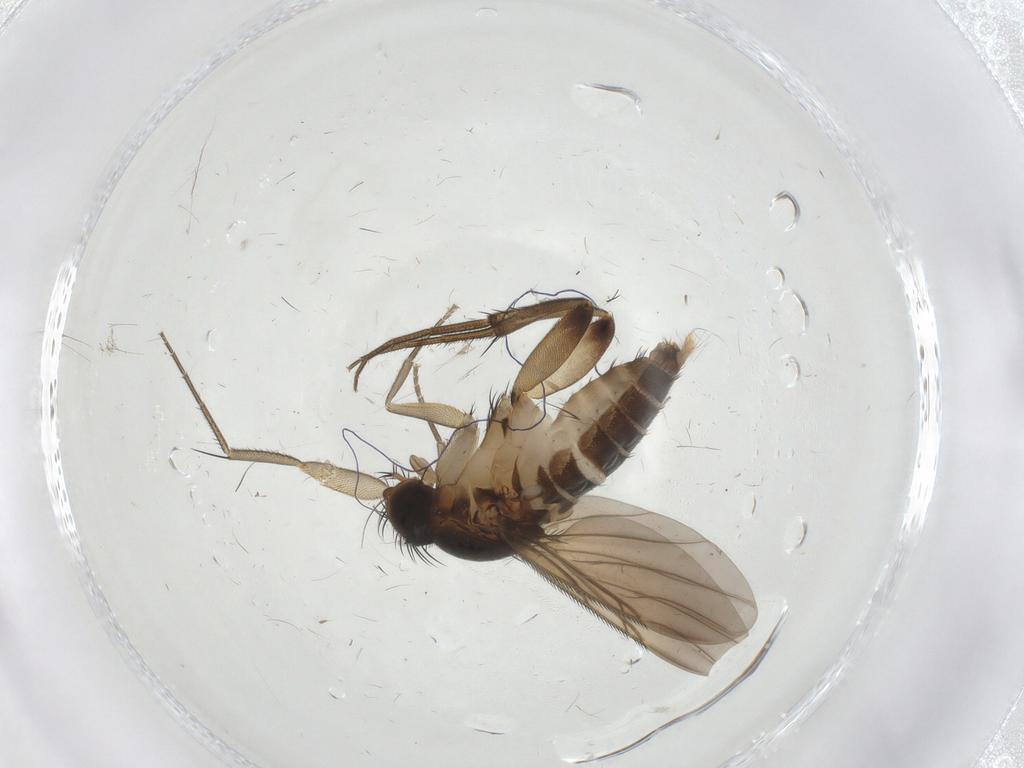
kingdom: Animalia
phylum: Arthropoda
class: Insecta
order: Diptera
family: Phoridae
